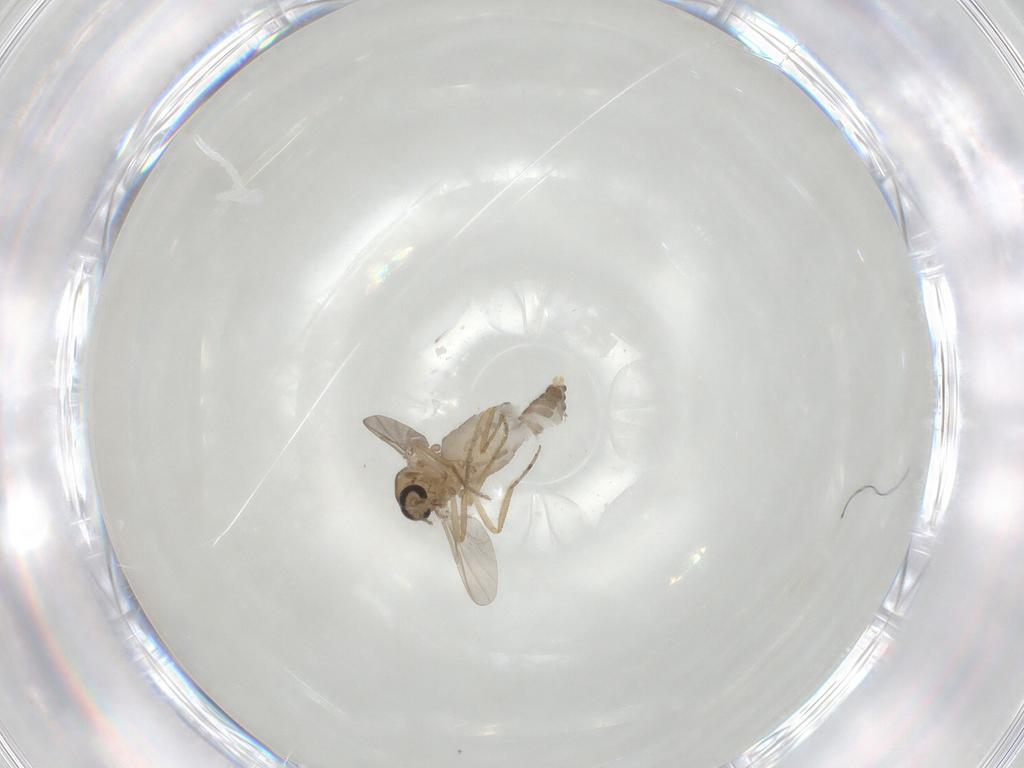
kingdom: Animalia
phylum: Arthropoda
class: Insecta
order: Diptera
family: Ceratopogonidae
